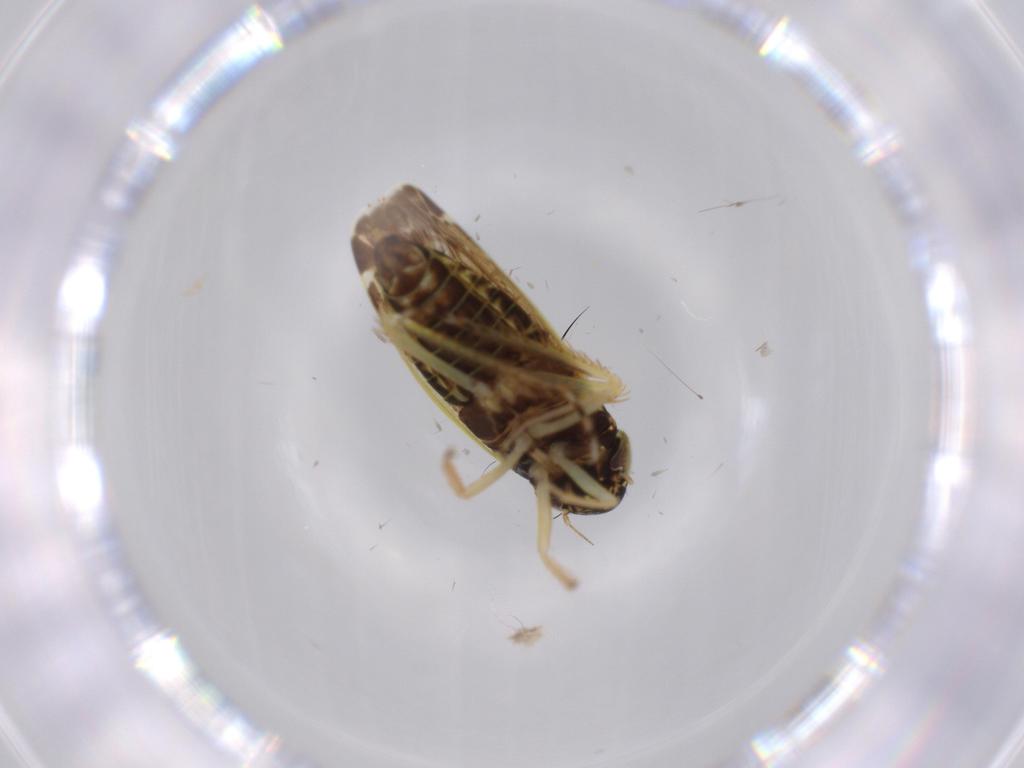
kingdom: Animalia
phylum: Arthropoda
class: Insecta
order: Hemiptera
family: Cicadellidae
